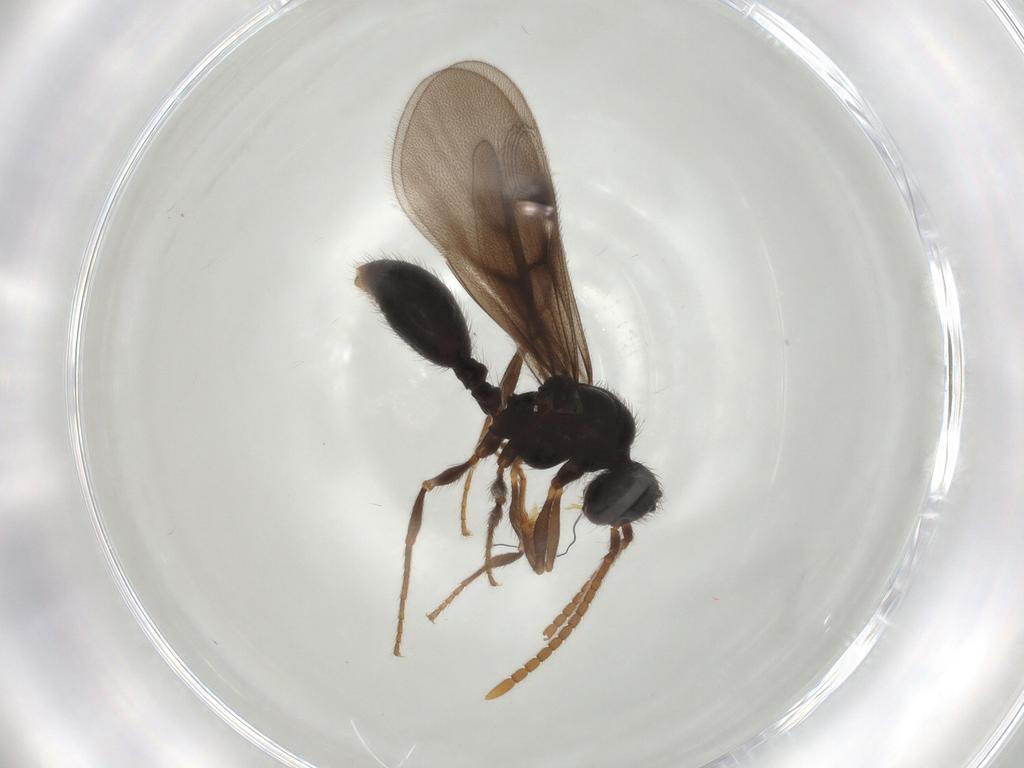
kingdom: Animalia
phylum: Arthropoda
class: Insecta
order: Hymenoptera
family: Formicidae
